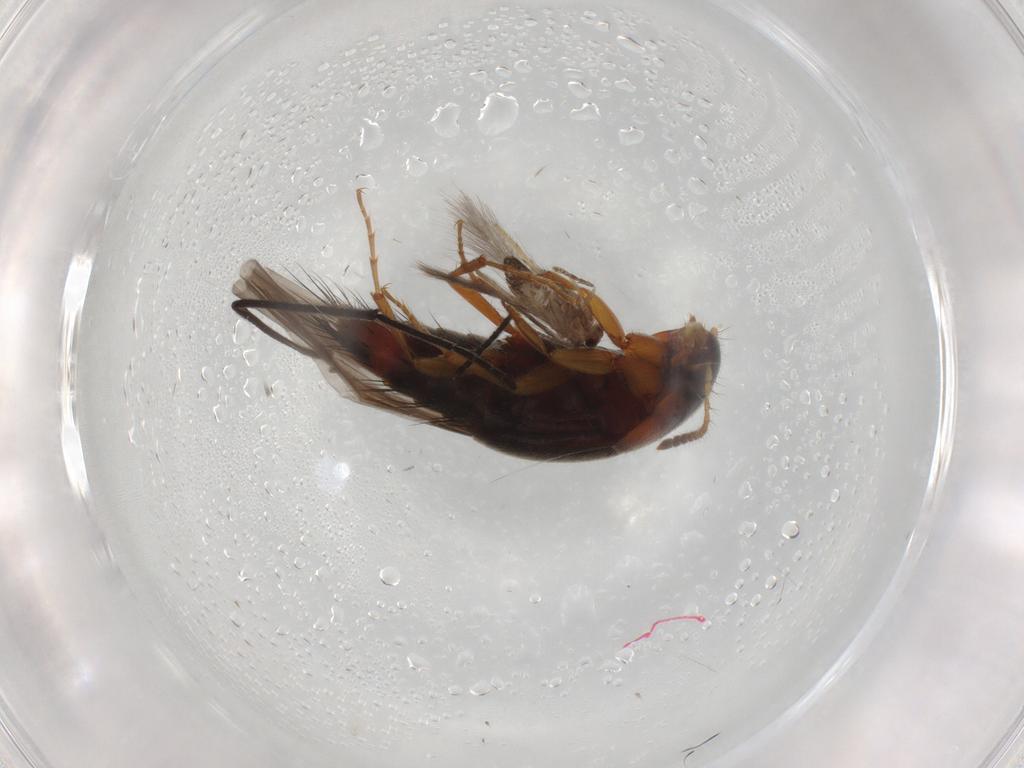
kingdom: Animalia
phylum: Arthropoda
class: Insecta
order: Coleoptera
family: Staphylinidae
